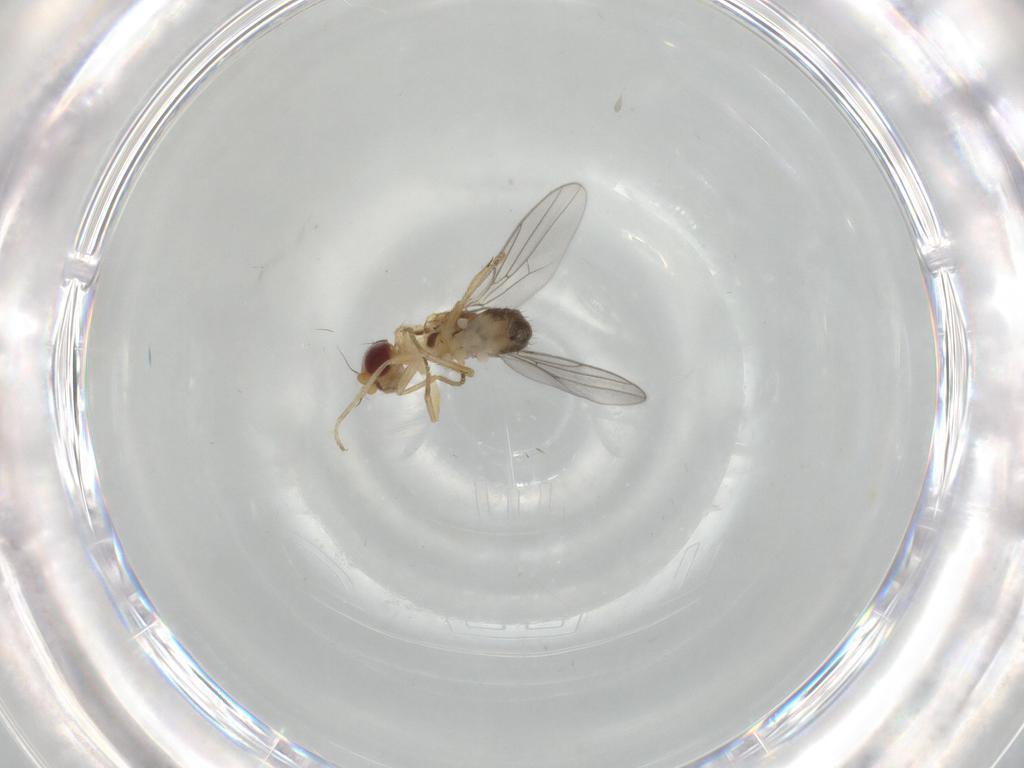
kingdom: Animalia
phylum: Arthropoda
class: Insecta
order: Diptera
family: Chloropidae
